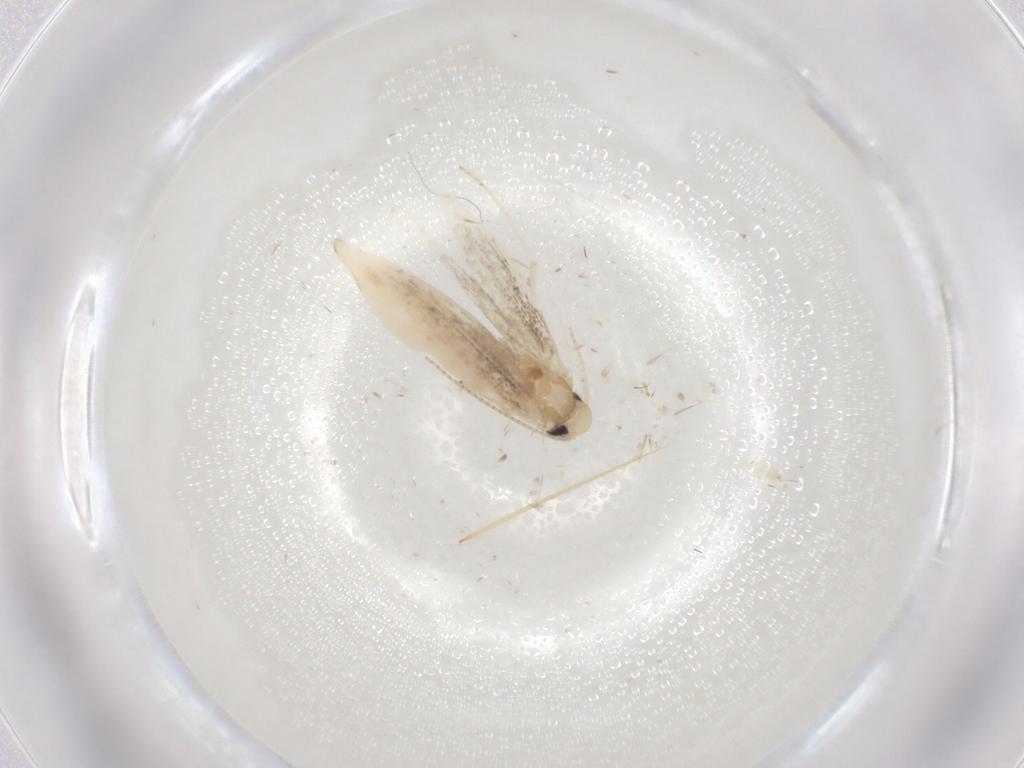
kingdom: Animalia
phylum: Arthropoda
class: Insecta
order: Lepidoptera
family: Gracillariidae
